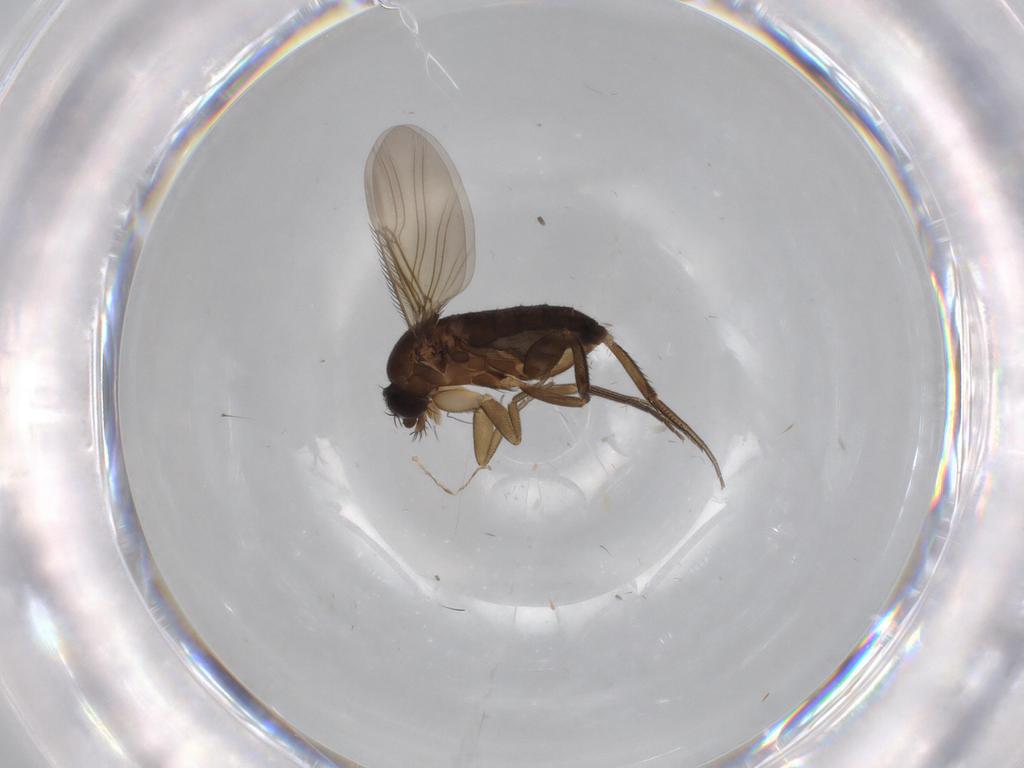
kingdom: Animalia
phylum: Arthropoda
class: Insecta
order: Diptera
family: Phoridae
